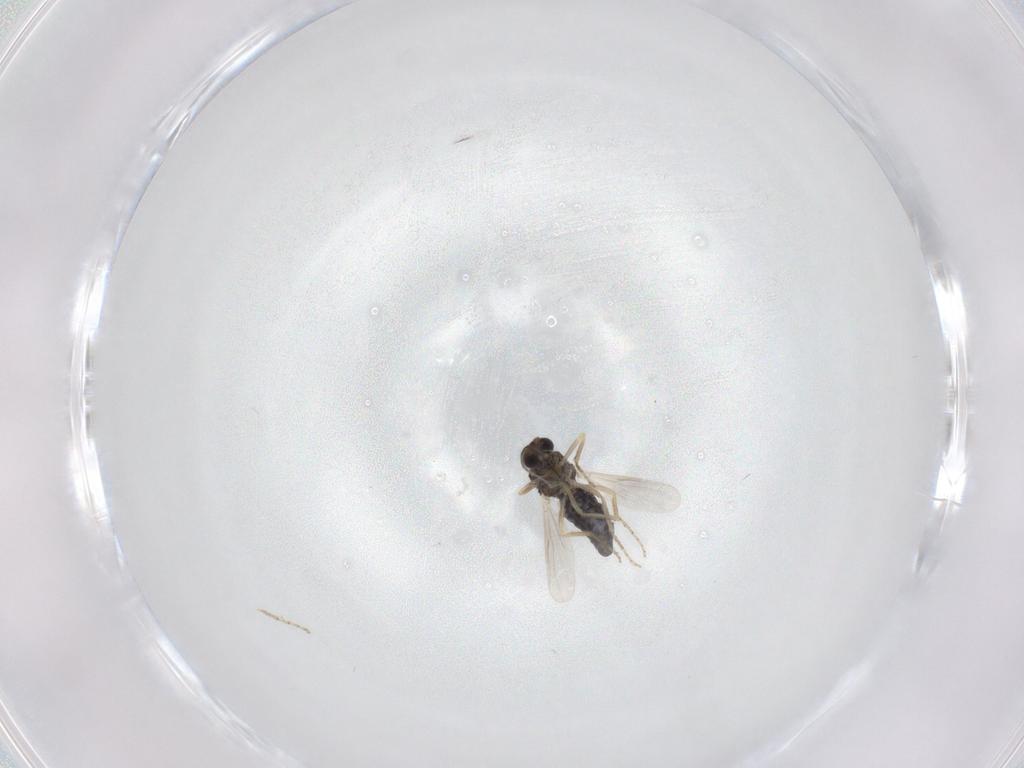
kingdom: Animalia
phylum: Arthropoda
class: Insecta
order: Diptera
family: Ceratopogonidae
